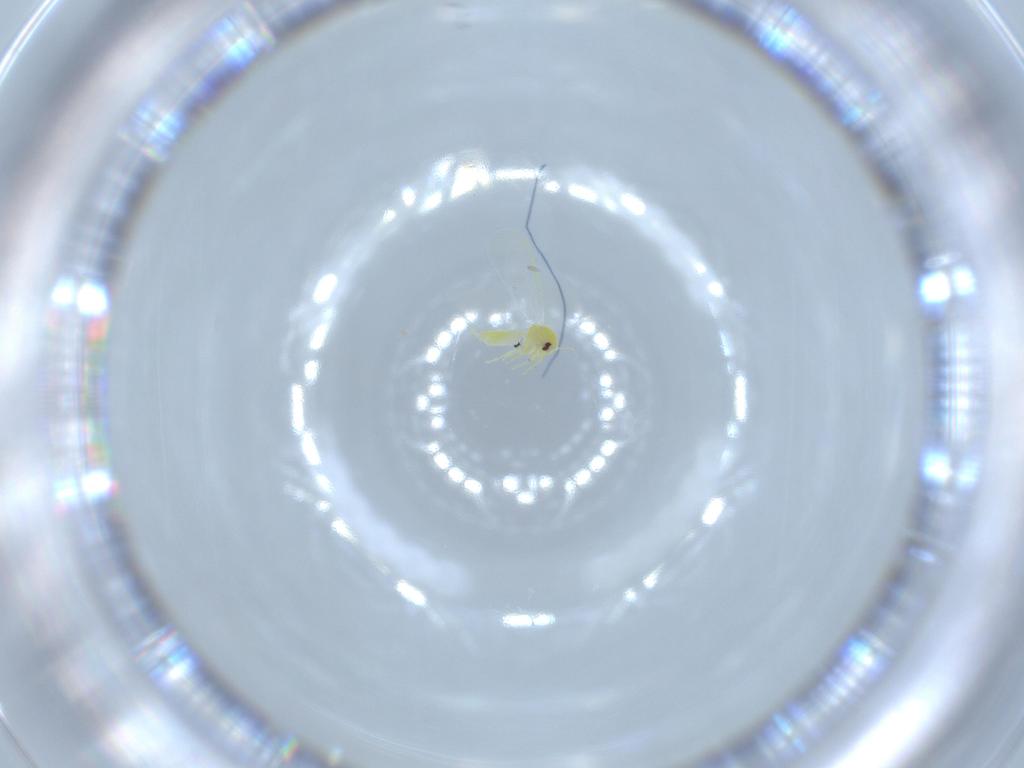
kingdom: Animalia
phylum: Arthropoda
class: Insecta
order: Hemiptera
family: Aleyrodidae
